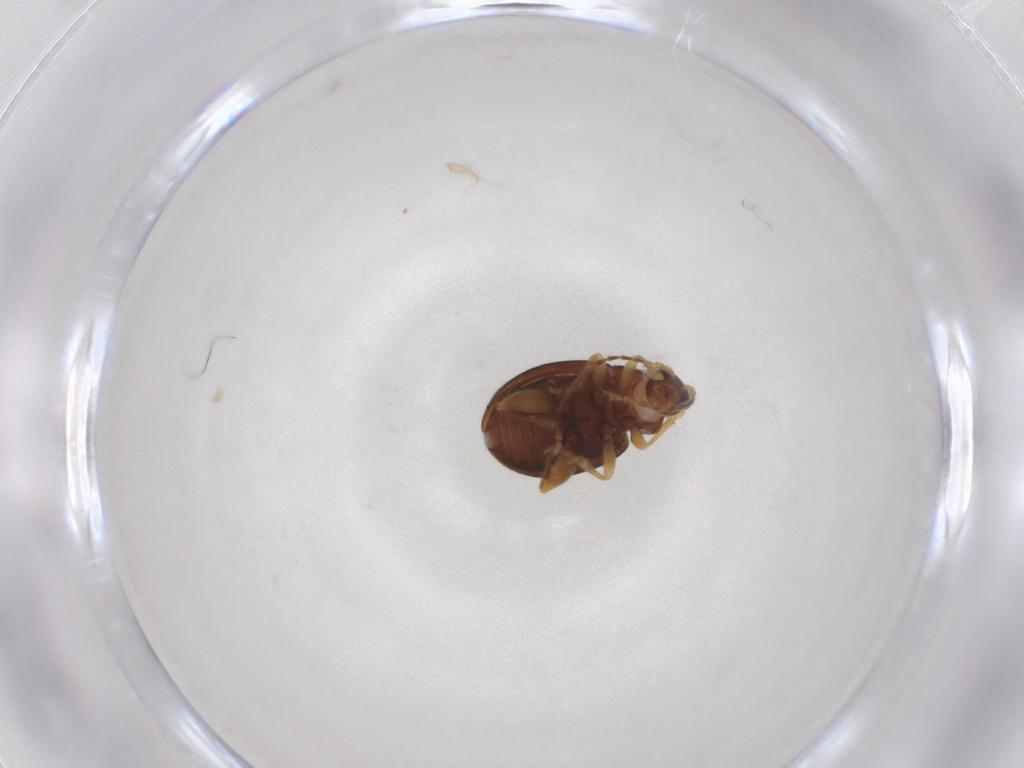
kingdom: Animalia
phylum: Arthropoda
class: Insecta
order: Coleoptera
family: Chrysomelidae
